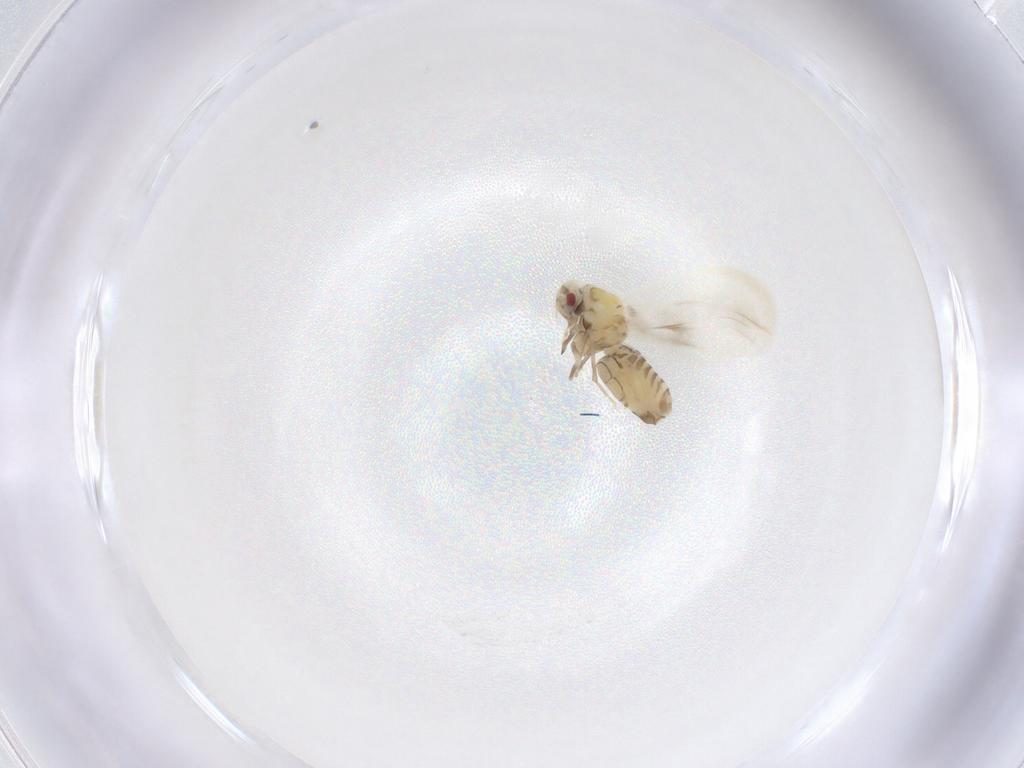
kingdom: Animalia
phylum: Arthropoda
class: Insecta
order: Hemiptera
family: Aleyrodidae
